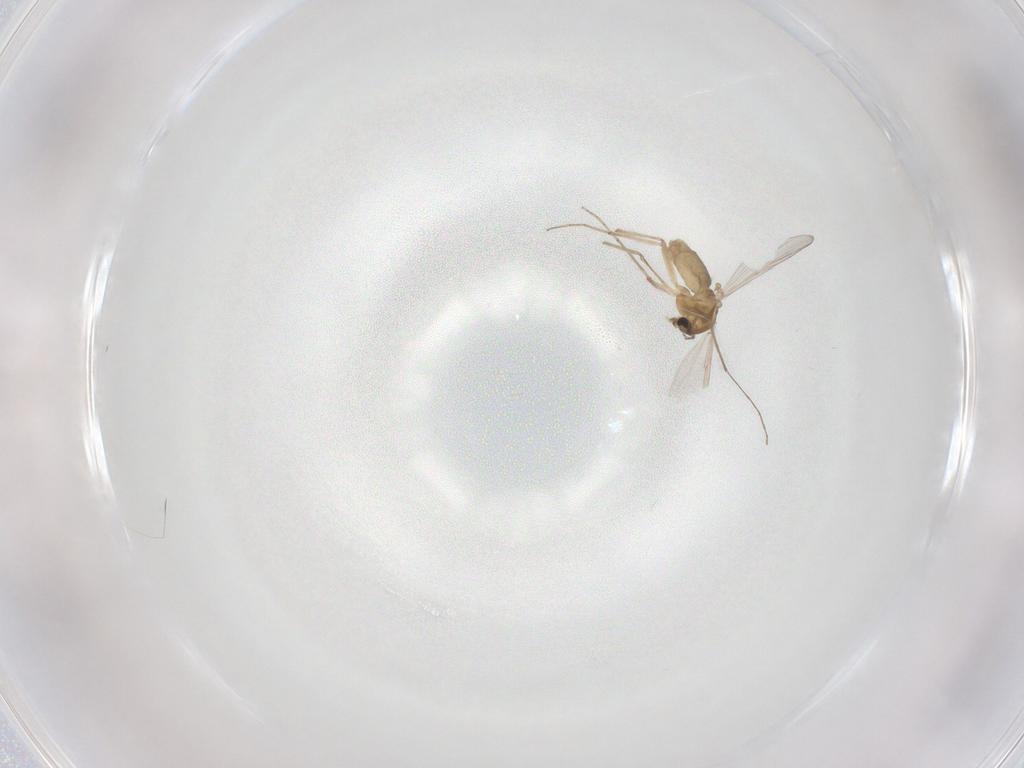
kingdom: Animalia
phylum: Arthropoda
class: Insecta
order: Diptera
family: Chironomidae
